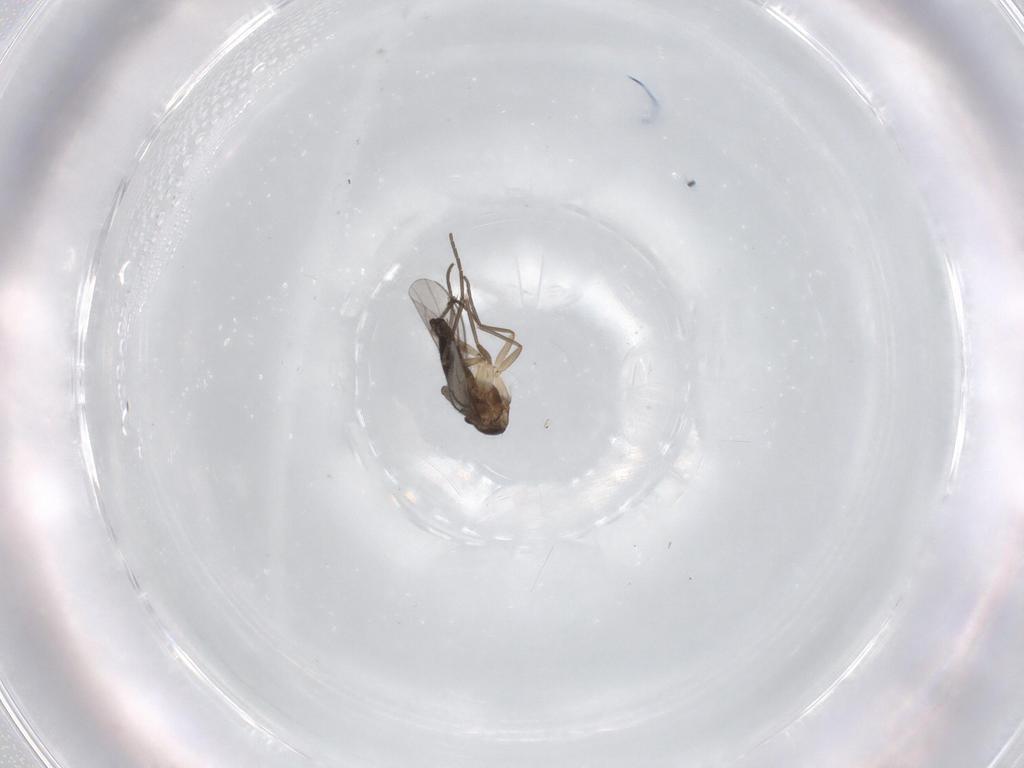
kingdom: Animalia
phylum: Arthropoda
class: Insecta
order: Diptera
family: Sciaridae
